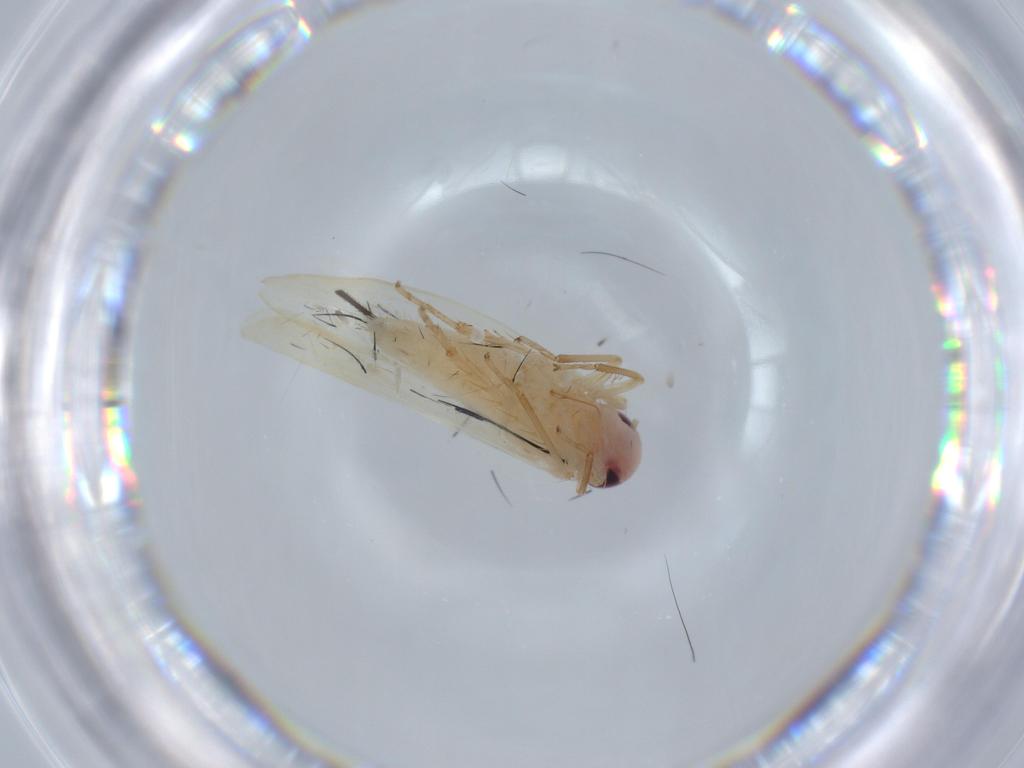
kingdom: Animalia
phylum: Arthropoda
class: Insecta
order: Hemiptera
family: Cicadellidae
